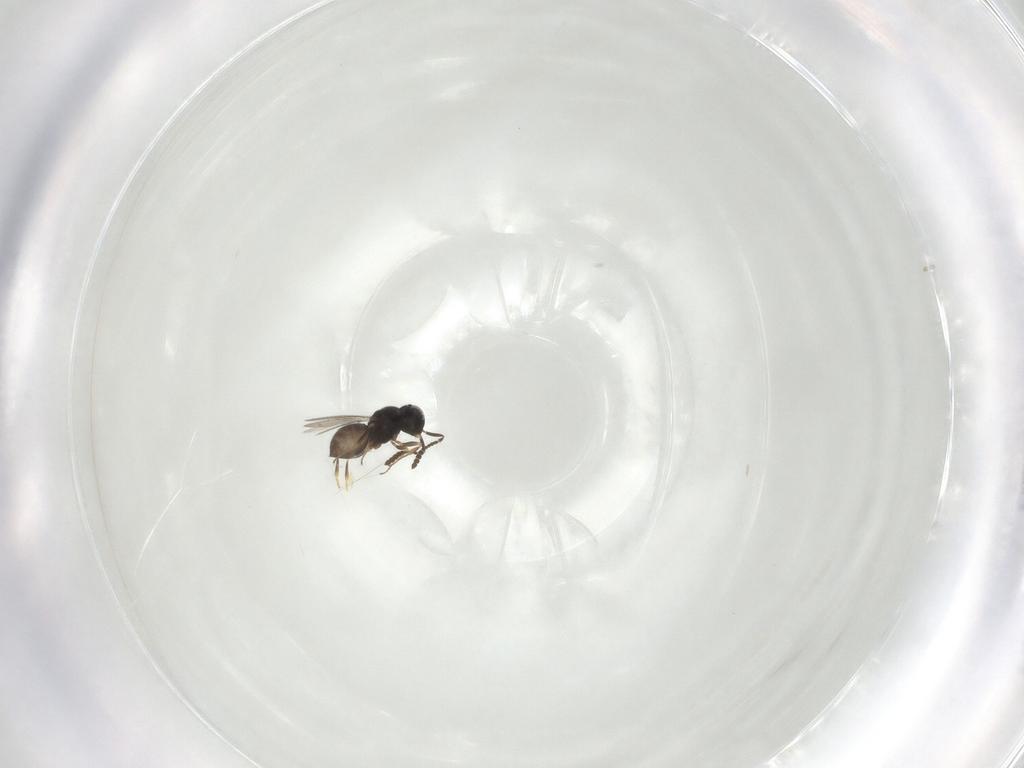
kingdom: Animalia
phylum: Arthropoda
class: Insecta
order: Hymenoptera
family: Scelionidae
